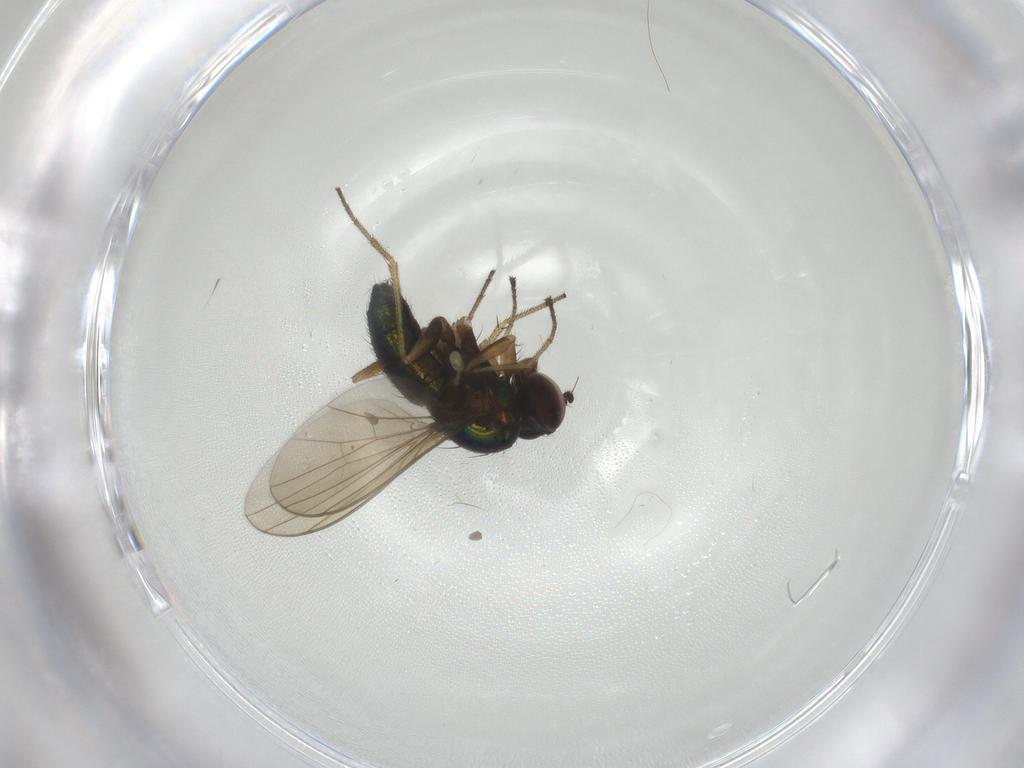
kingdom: Animalia
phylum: Arthropoda
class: Insecta
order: Diptera
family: Dolichopodidae
